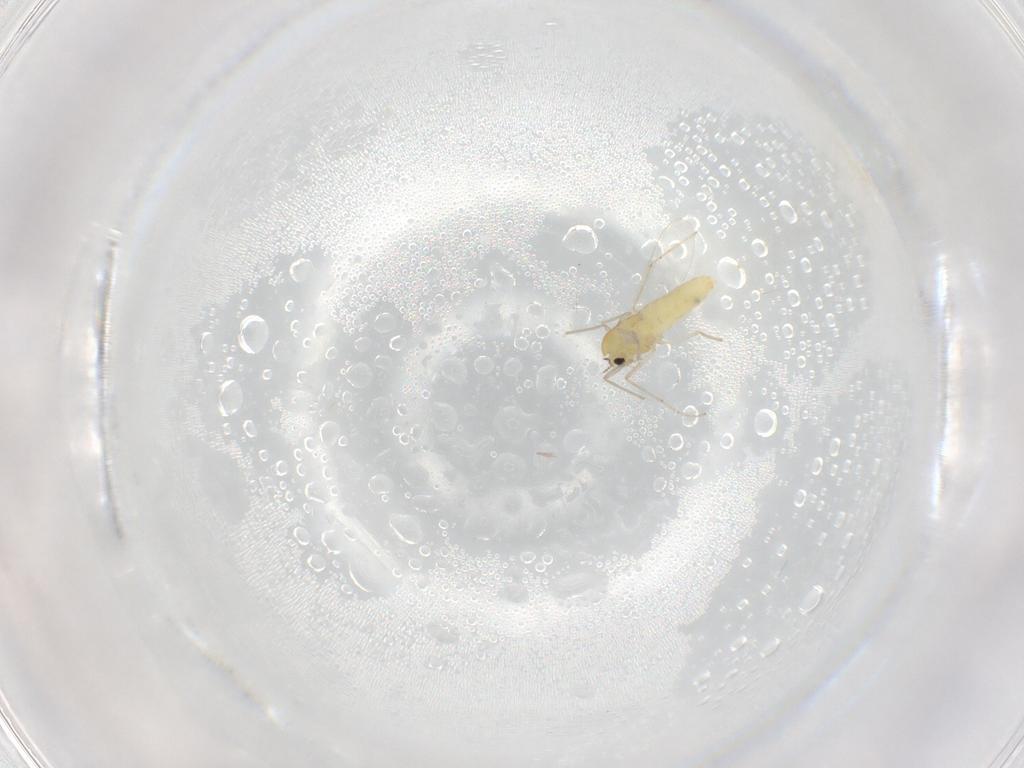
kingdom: Animalia
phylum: Arthropoda
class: Insecta
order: Diptera
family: Chironomidae
